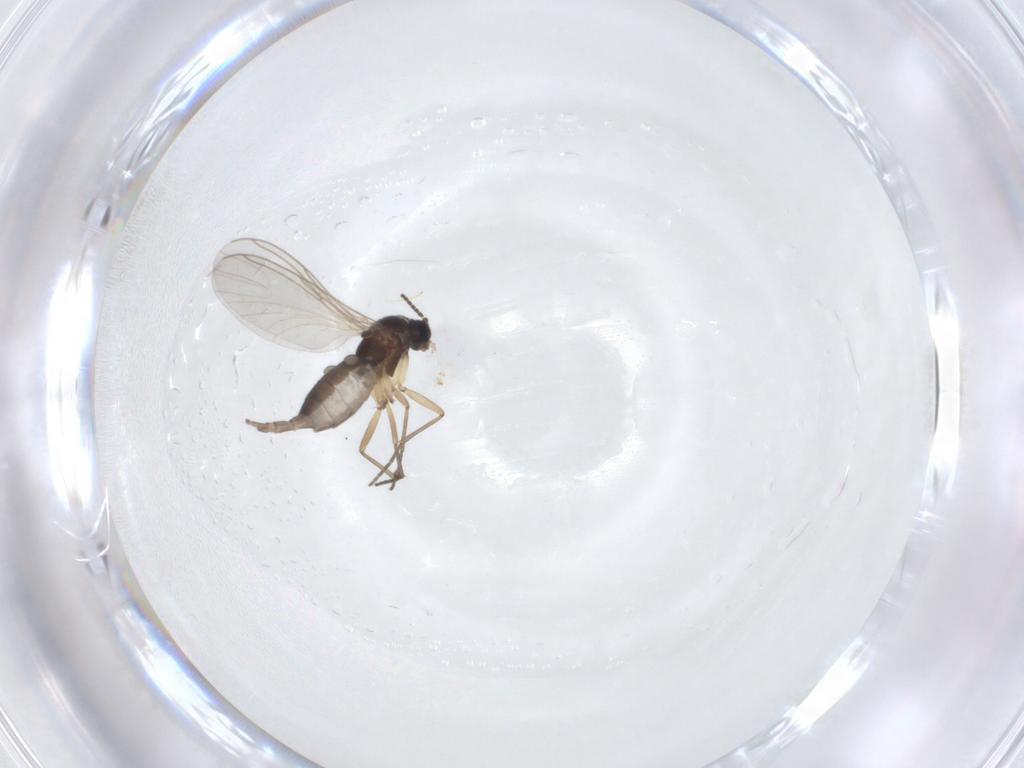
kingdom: Animalia
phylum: Arthropoda
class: Insecta
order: Diptera
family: Sciaridae
